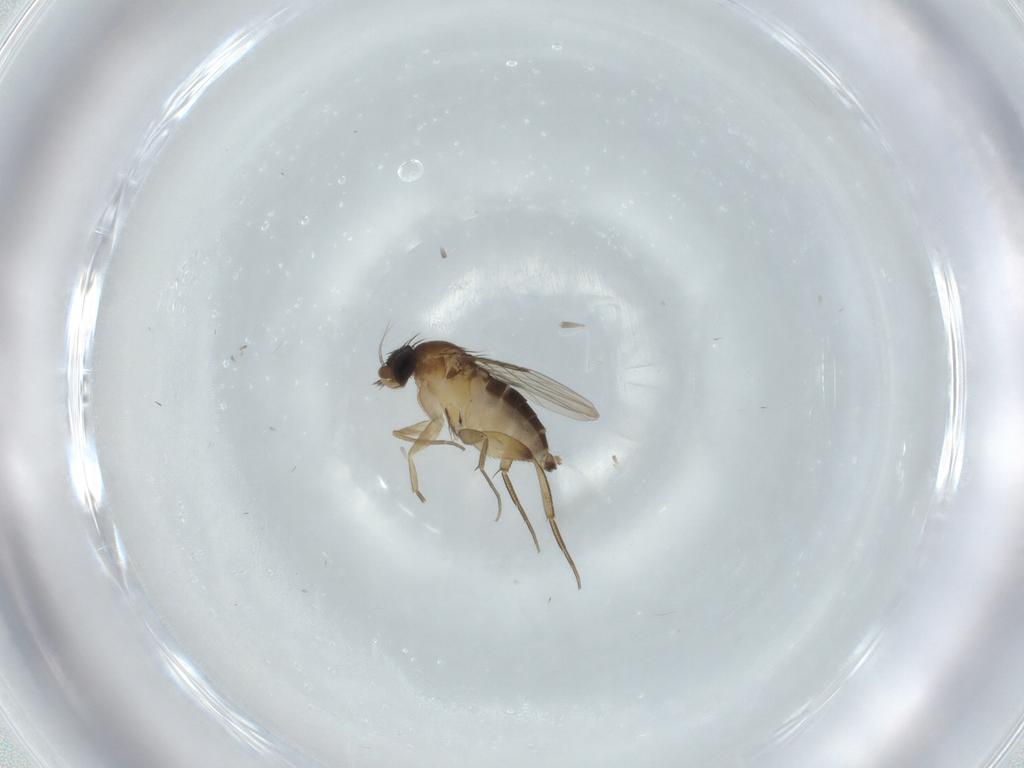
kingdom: Animalia
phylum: Arthropoda
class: Insecta
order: Diptera
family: Phoridae
